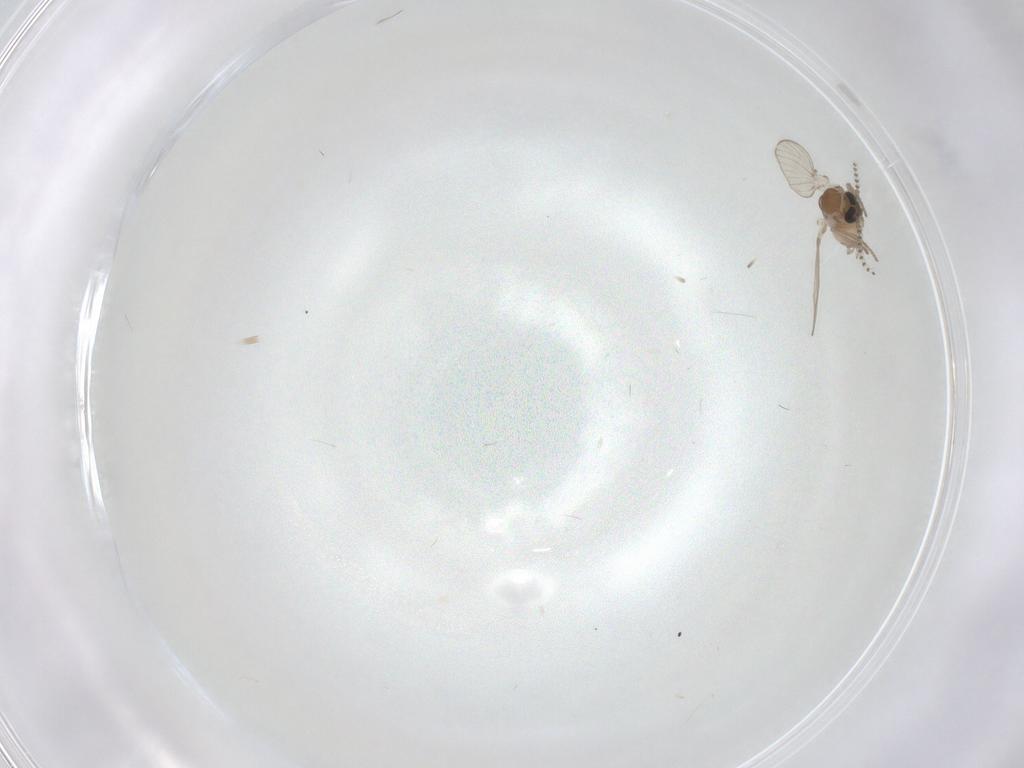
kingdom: Animalia
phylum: Arthropoda
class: Insecta
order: Diptera
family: Psychodidae
